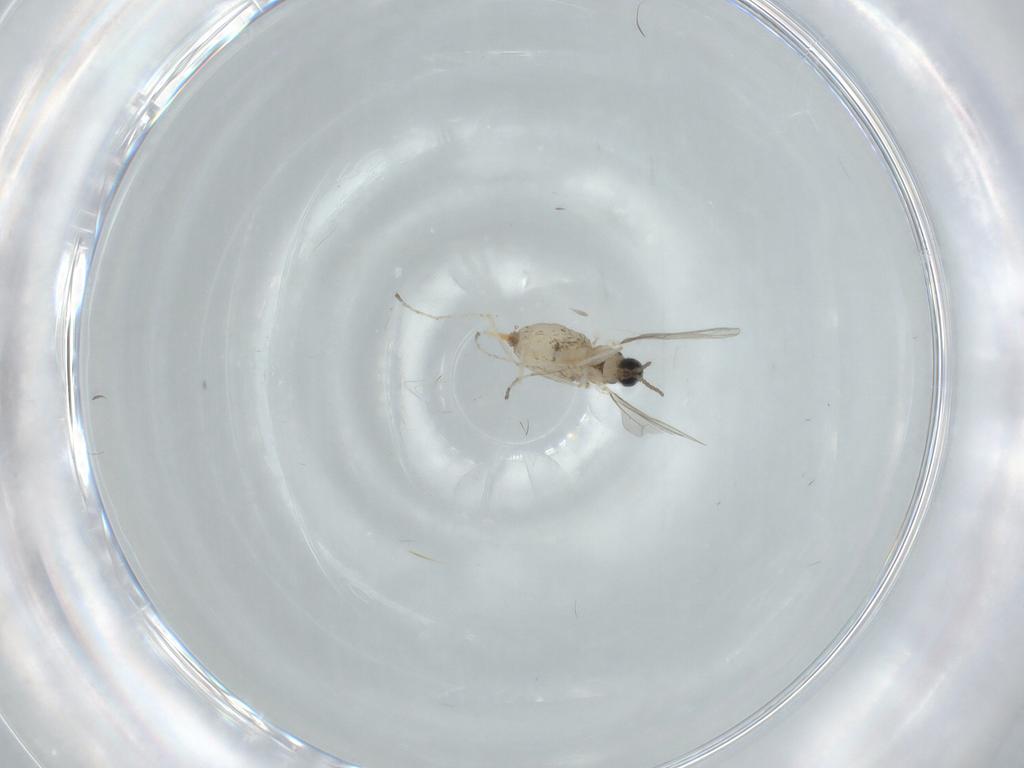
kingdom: Animalia
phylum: Arthropoda
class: Insecta
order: Diptera
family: Cecidomyiidae
